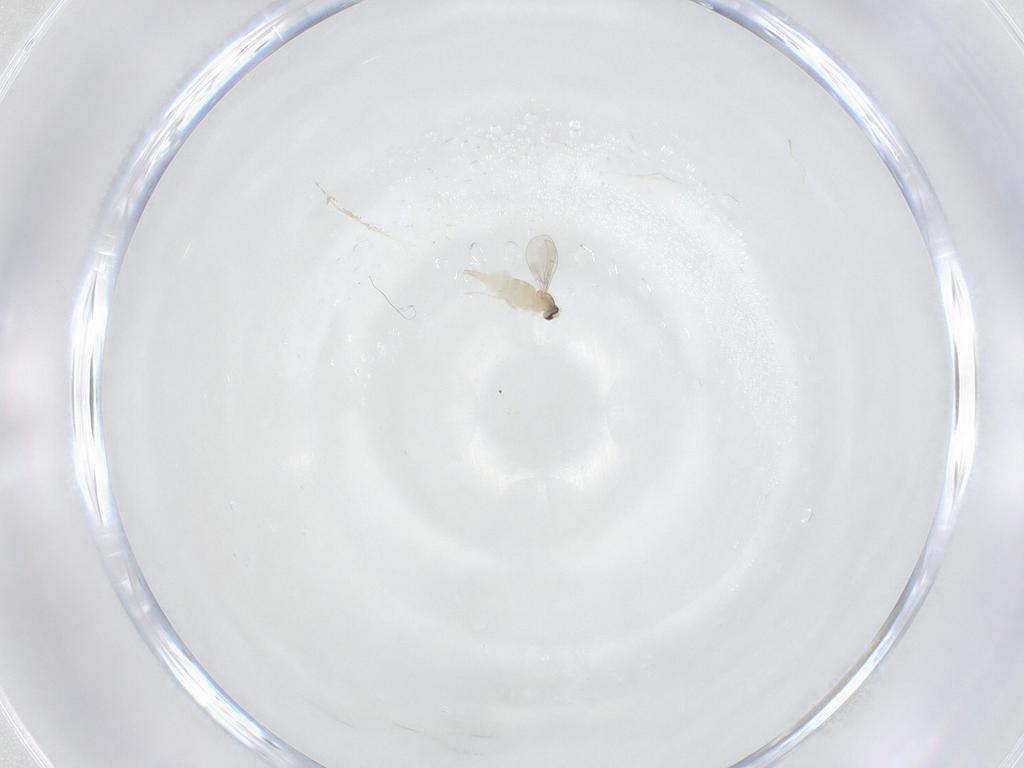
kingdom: Animalia
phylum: Arthropoda
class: Insecta
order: Diptera
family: Cecidomyiidae
